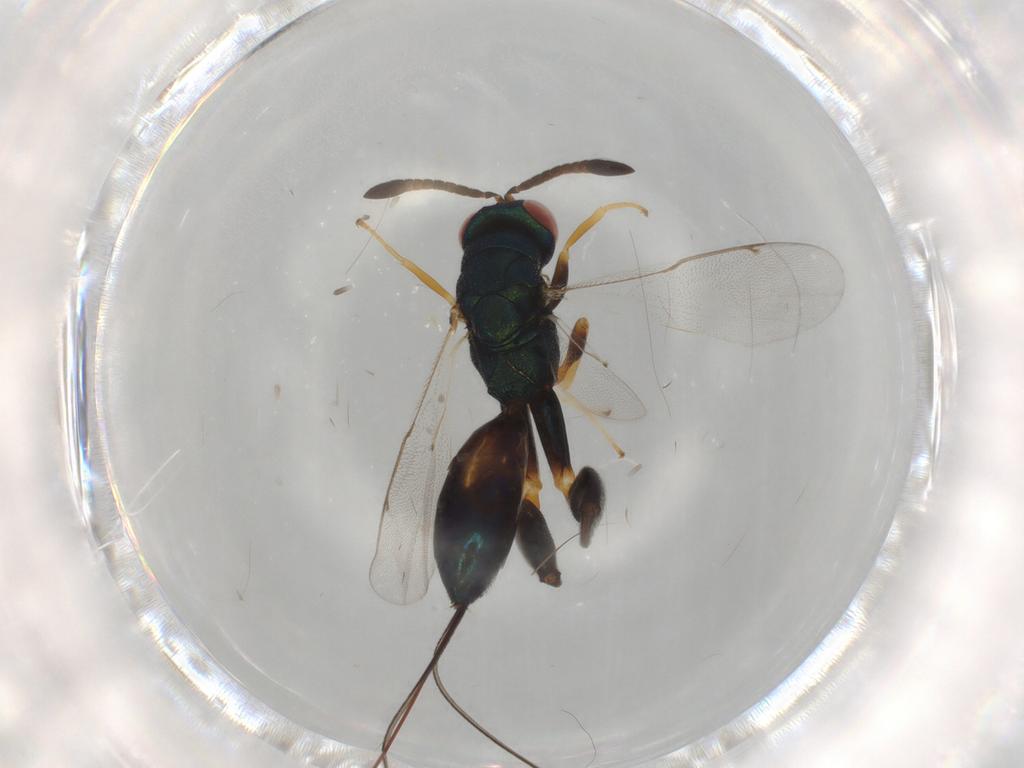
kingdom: Animalia
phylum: Arthropoda
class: Insecta
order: Hymenoptera
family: Torymidae
